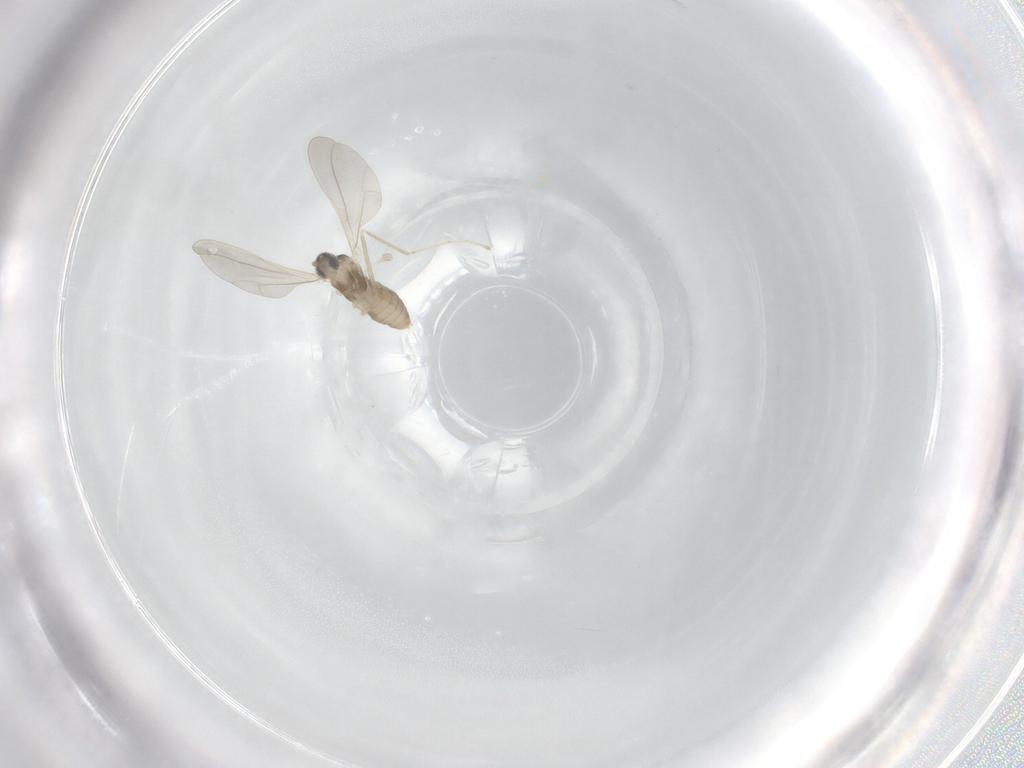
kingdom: Animalia
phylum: Arthropoda
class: Insecta
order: Diptera
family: Cecidomyiidae
